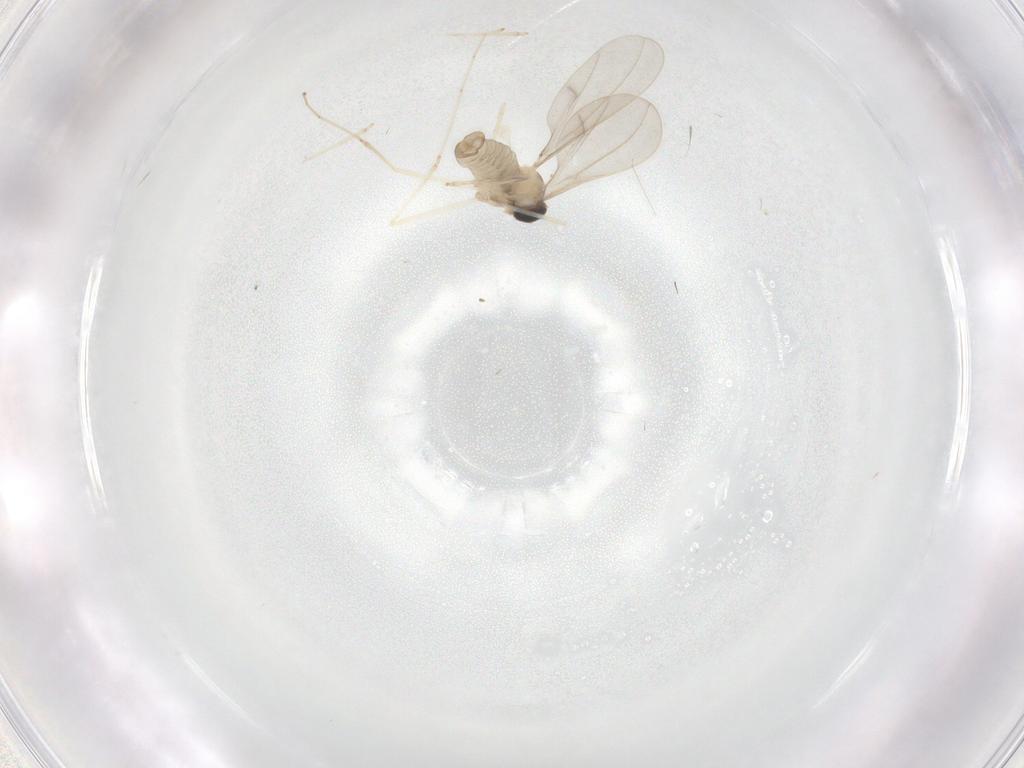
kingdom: Animalia
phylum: Arthropoda
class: Insecta
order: Diptera
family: Limoniidae
